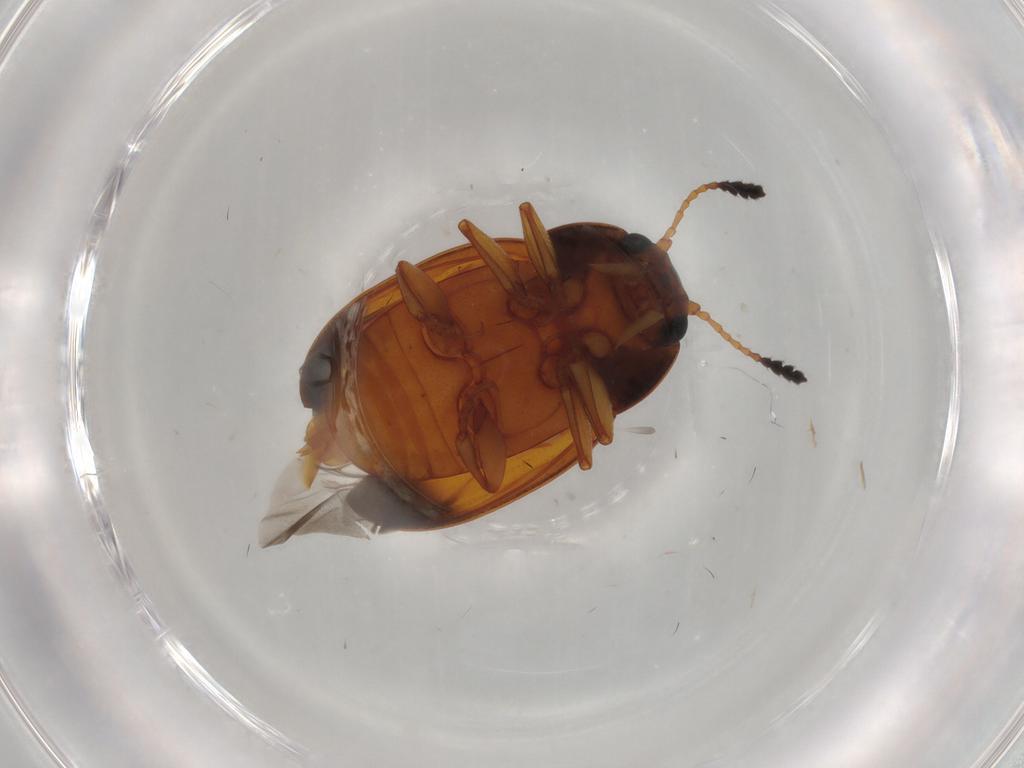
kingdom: Animalia
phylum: Arthropoda
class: Insecta
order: Coleoptera
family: Erotylidae
